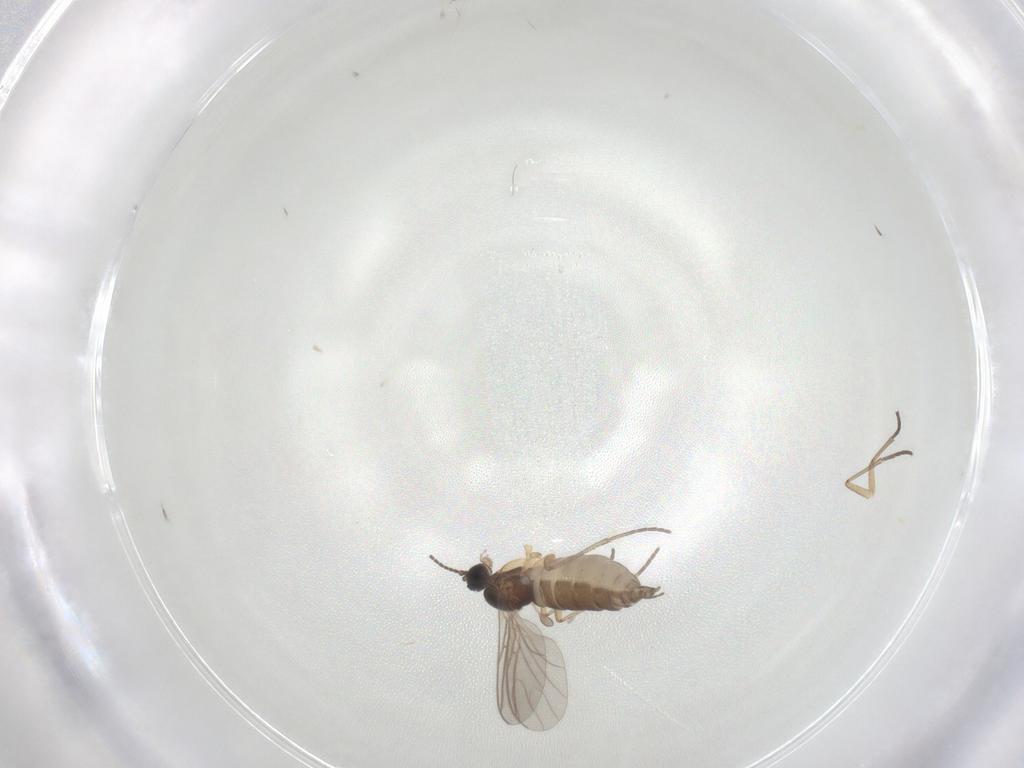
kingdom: Animalia
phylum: Arthropoda
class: Insecta
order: Diptera
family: Sciaridae
